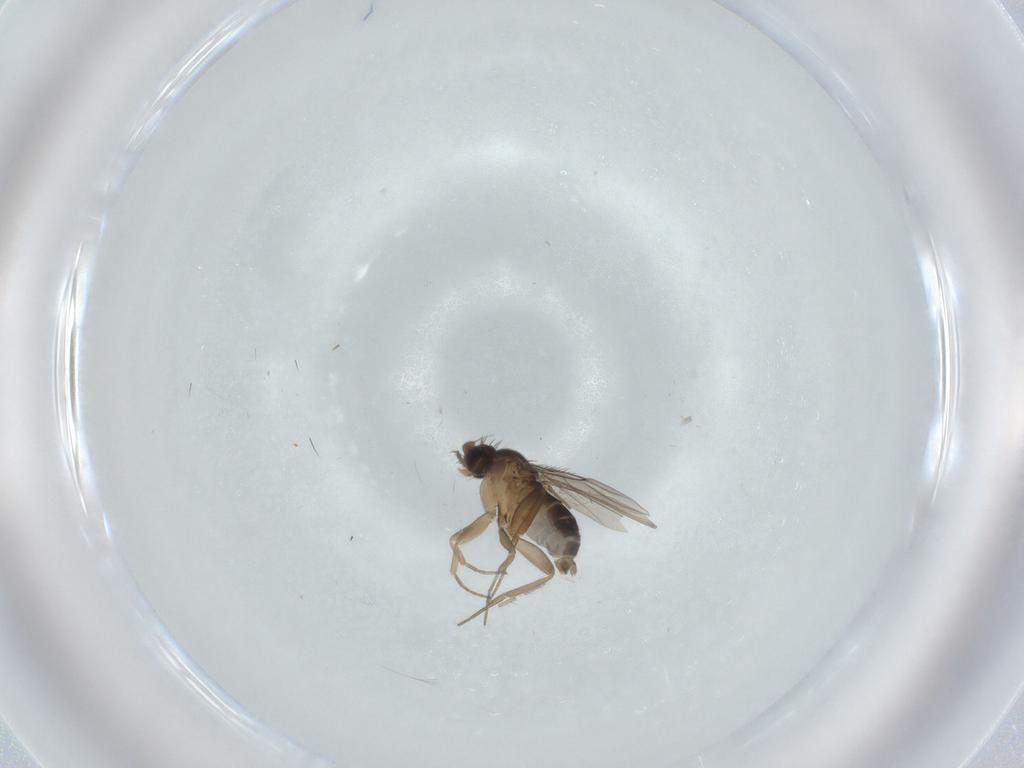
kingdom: Animalia
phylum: Arthropoda
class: Insecta
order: Diptera
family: Phoridae
